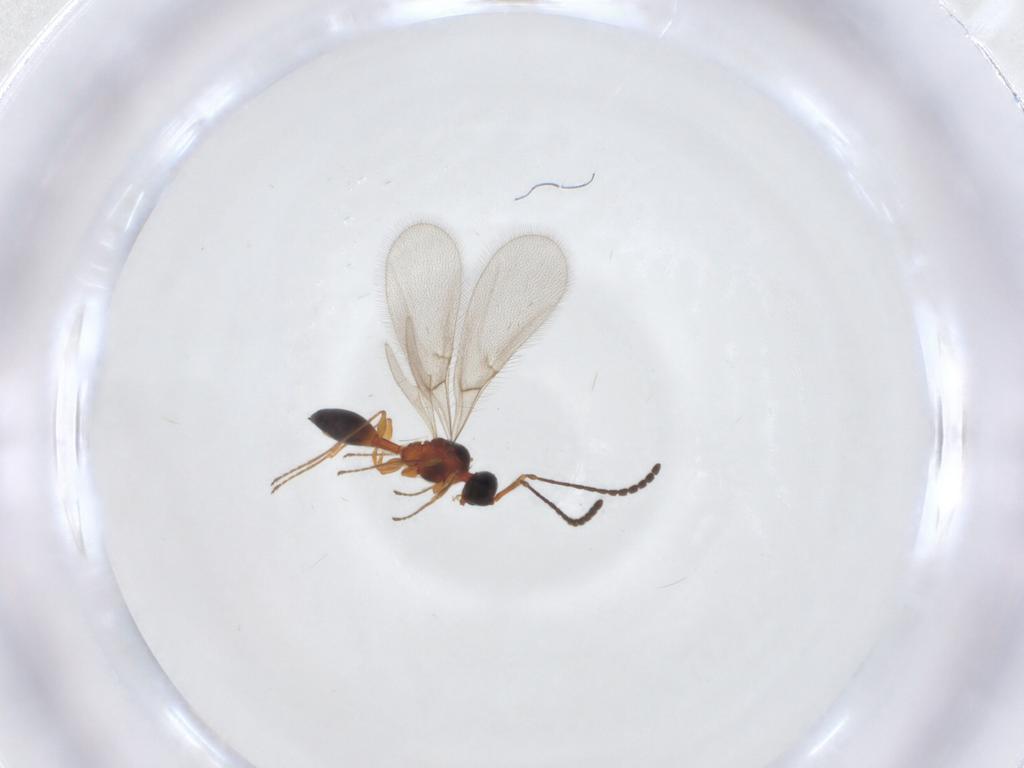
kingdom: Animalia
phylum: Arthropoda
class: Insecta
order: Hymenoptera
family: Diapriidae
